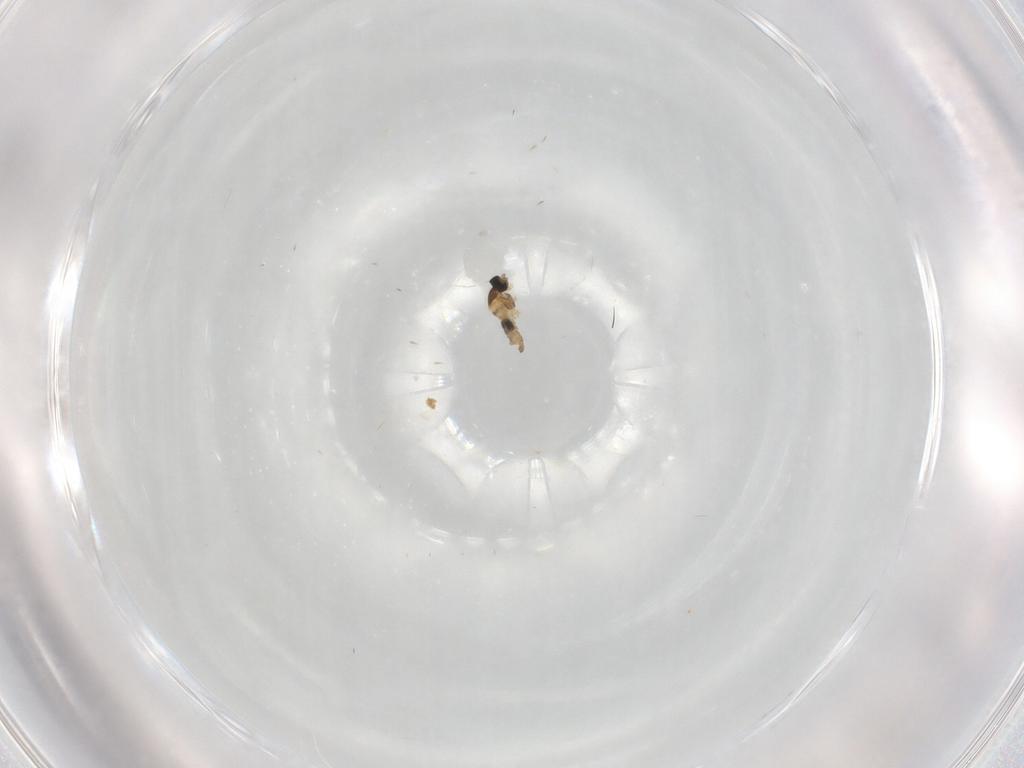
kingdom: Animalia
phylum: Arthropoda
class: Insecta
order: Diptera
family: Cecidomyiidae
